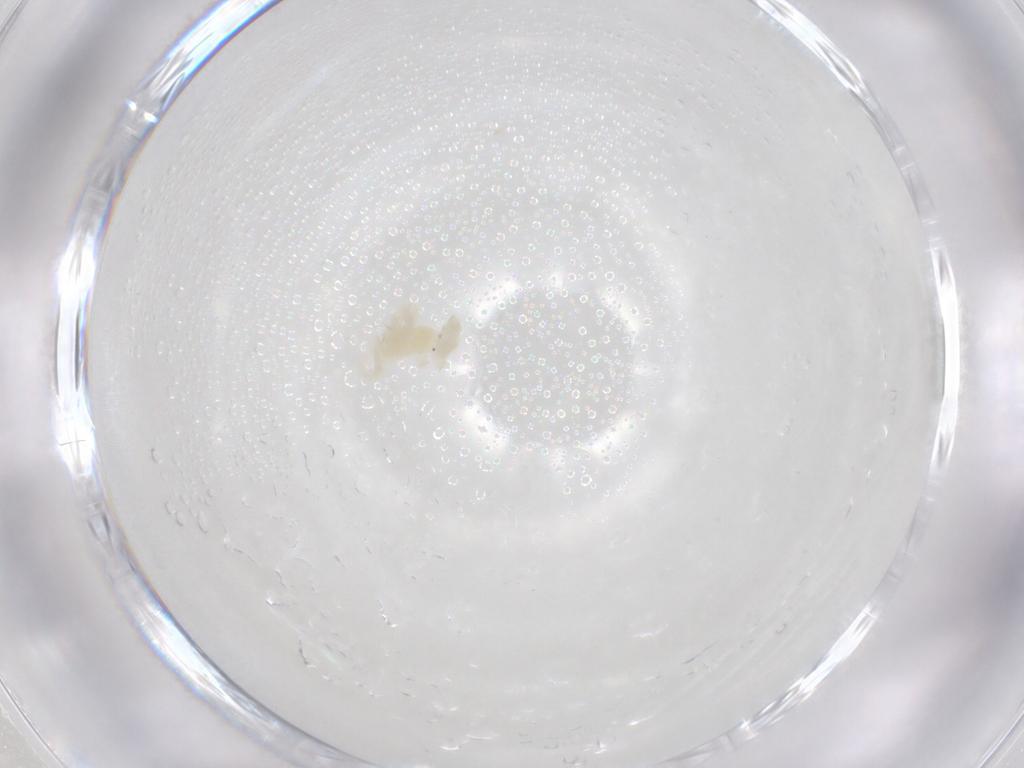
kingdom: Animalia
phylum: Arthropoda
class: Arachnida
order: Trombidiformes
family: Anystidae
